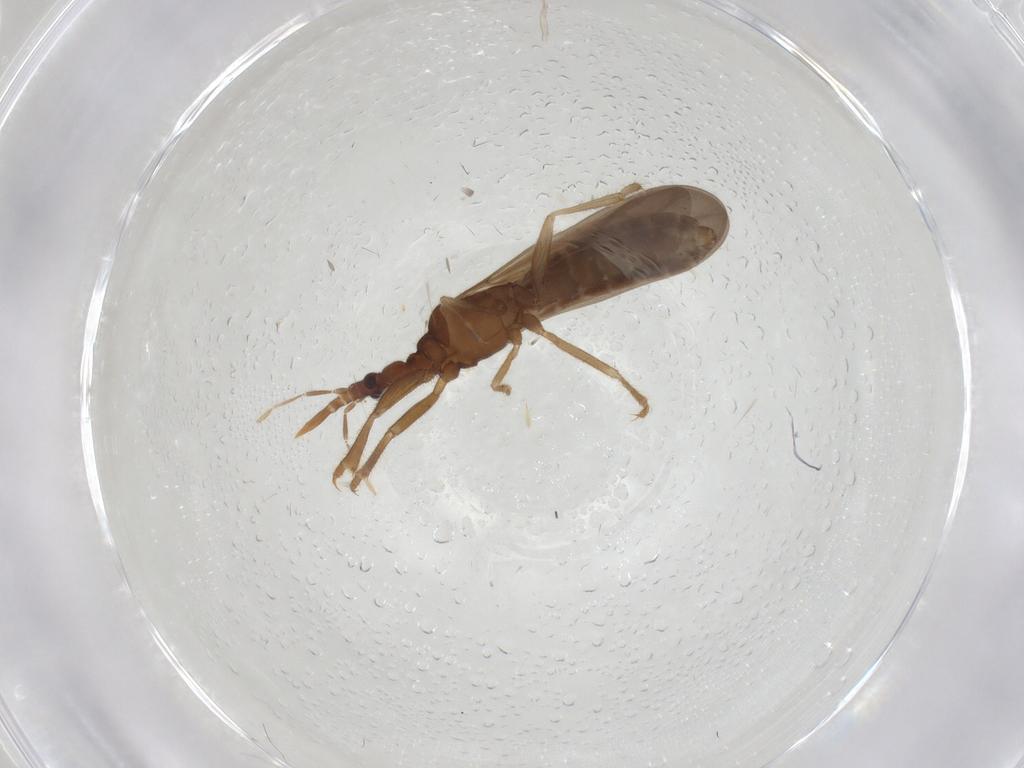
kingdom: Animalia
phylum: Arthropoda
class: Insecta
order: Hemiptera
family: Enicocephalidae
